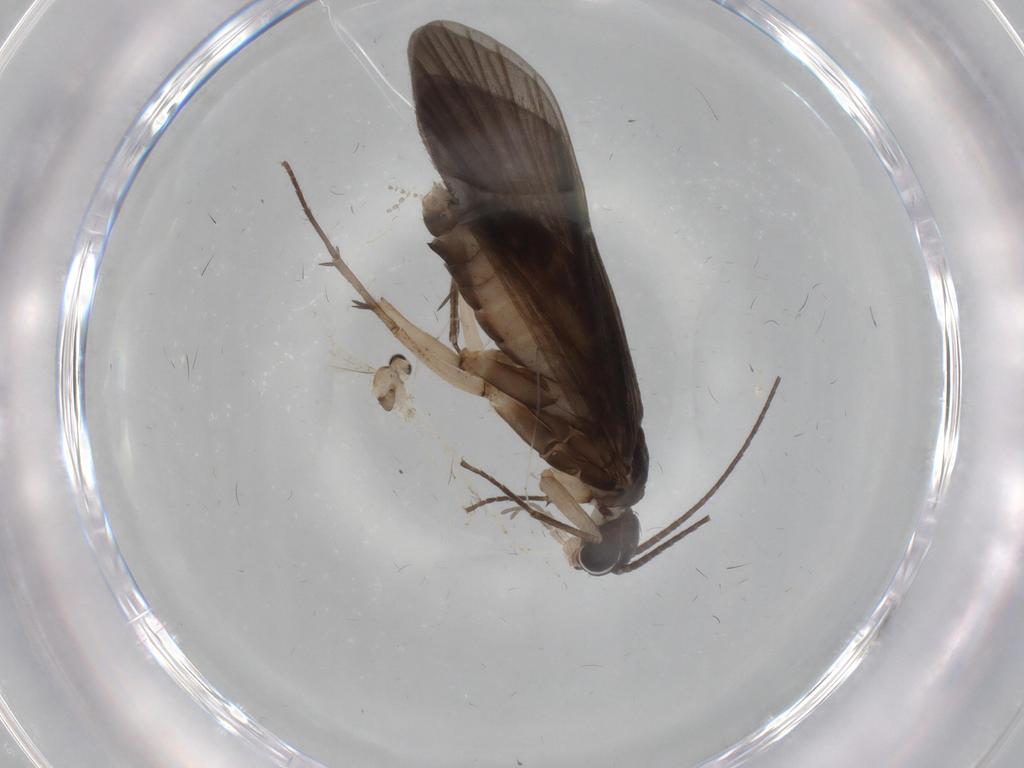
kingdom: Animalia
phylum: Arthropoda
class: Insecta
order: Trichoptera
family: Philopotamidae
